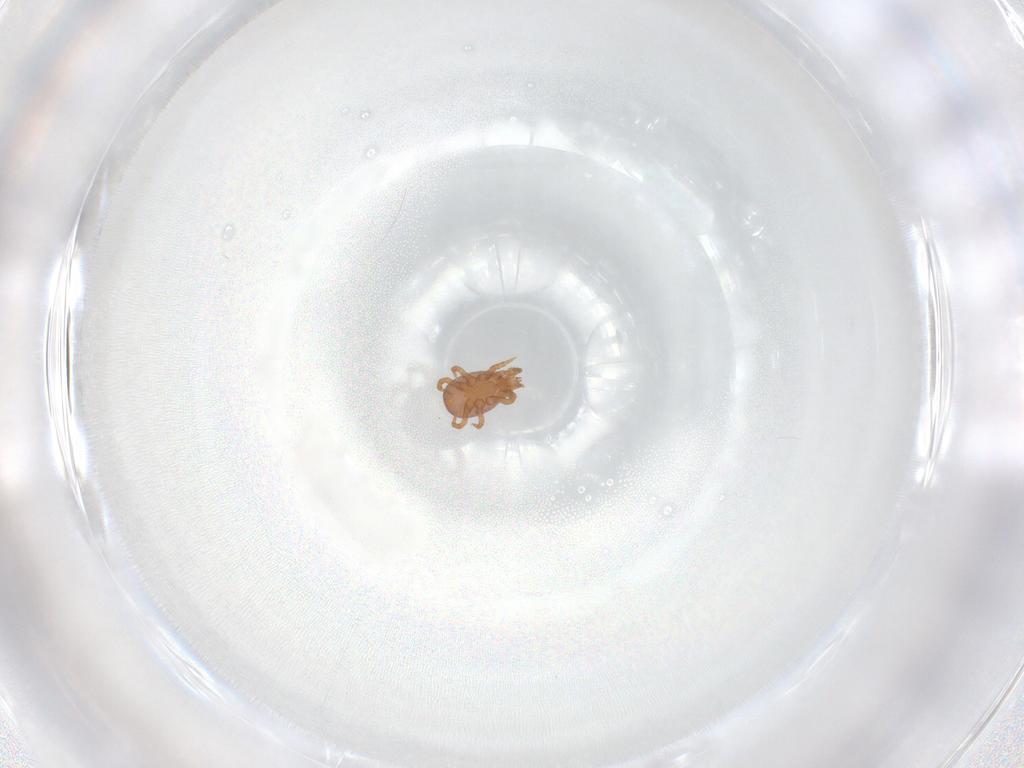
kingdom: Animalia
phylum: Arthropoda
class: Arachnida
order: Mesostigmata
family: Eviphididae
